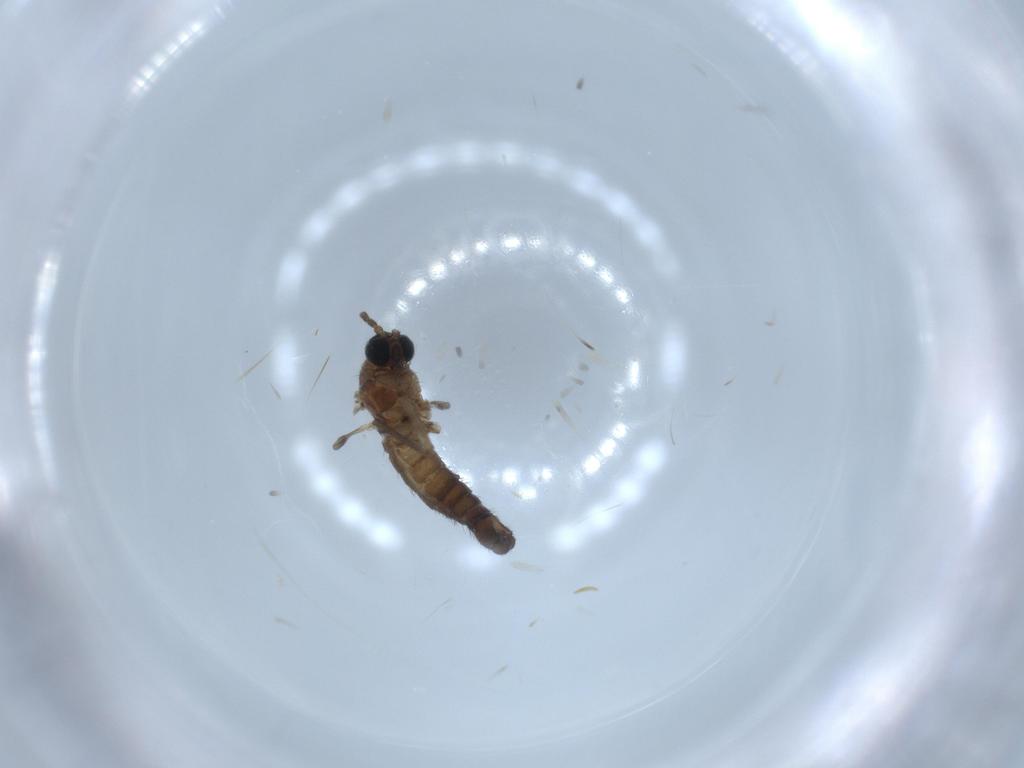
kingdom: Animalia
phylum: Arthropoda
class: Insecta
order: Diptera
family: Sciaridae
